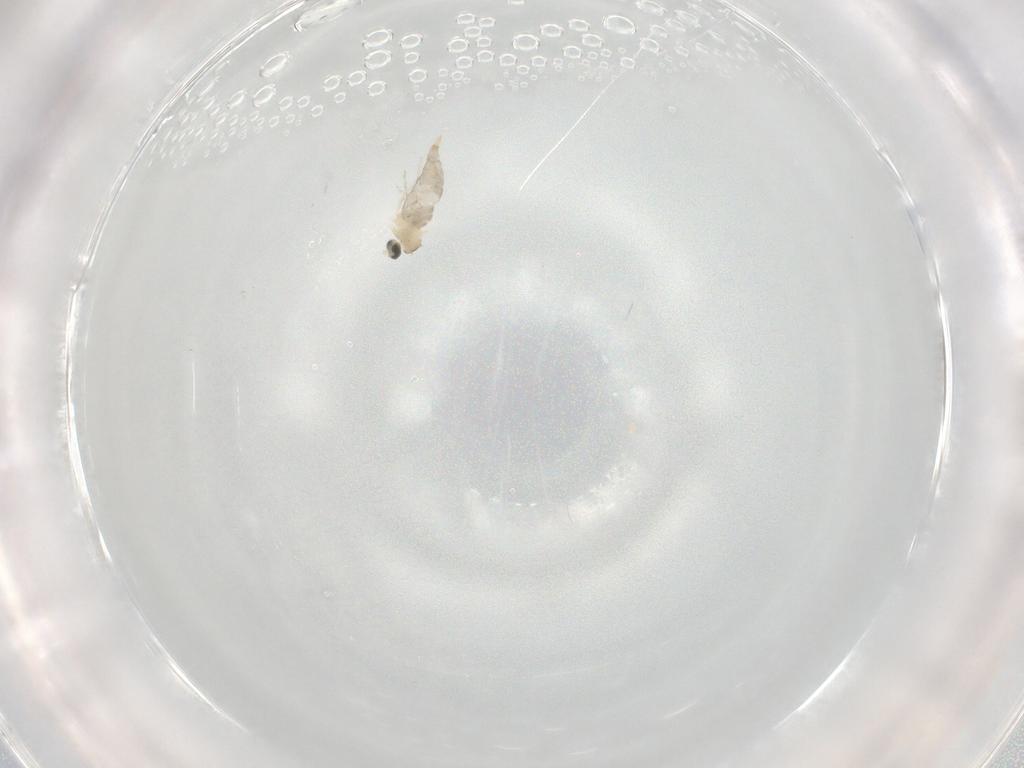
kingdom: Animalia
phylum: Arthropoda
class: Insecta
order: Diptera
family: Cecidomyiidae
